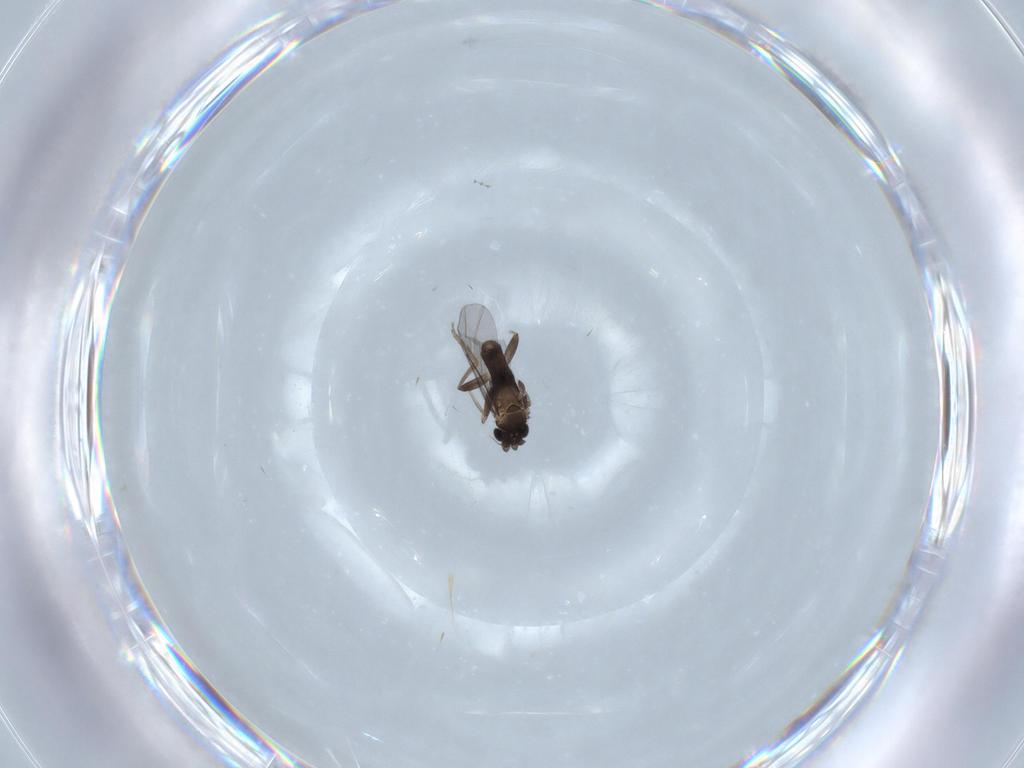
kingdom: Animalia
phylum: Arthropoda
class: Insecta
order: Diptera
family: Cecidomyiidae
